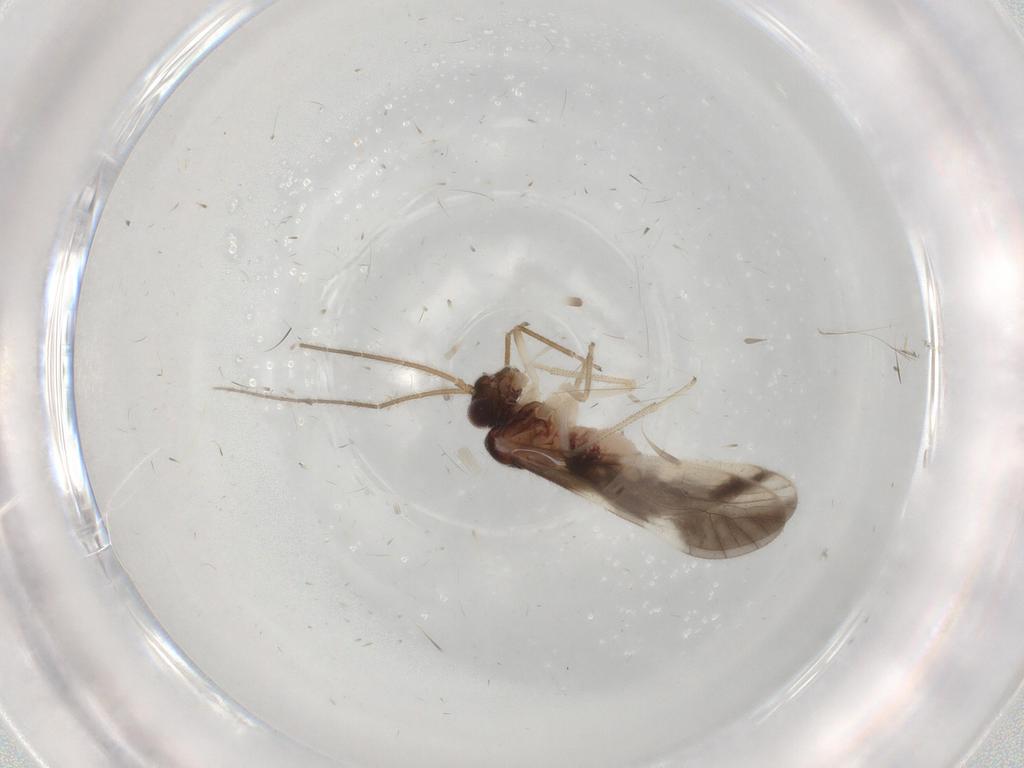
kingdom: Animalia
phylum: Arthropoda
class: Insecta
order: Psocodea
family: Caeciliusidae
